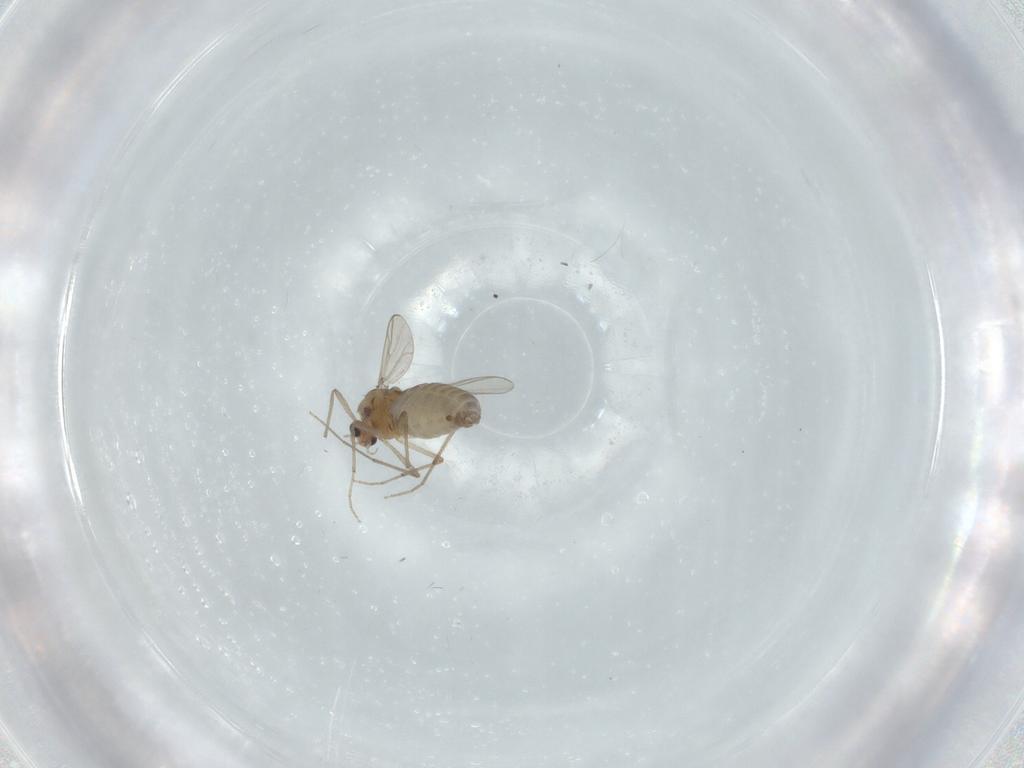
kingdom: Animalia
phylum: Arthropoda
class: Insecta
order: Diptera
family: Chironomidae
